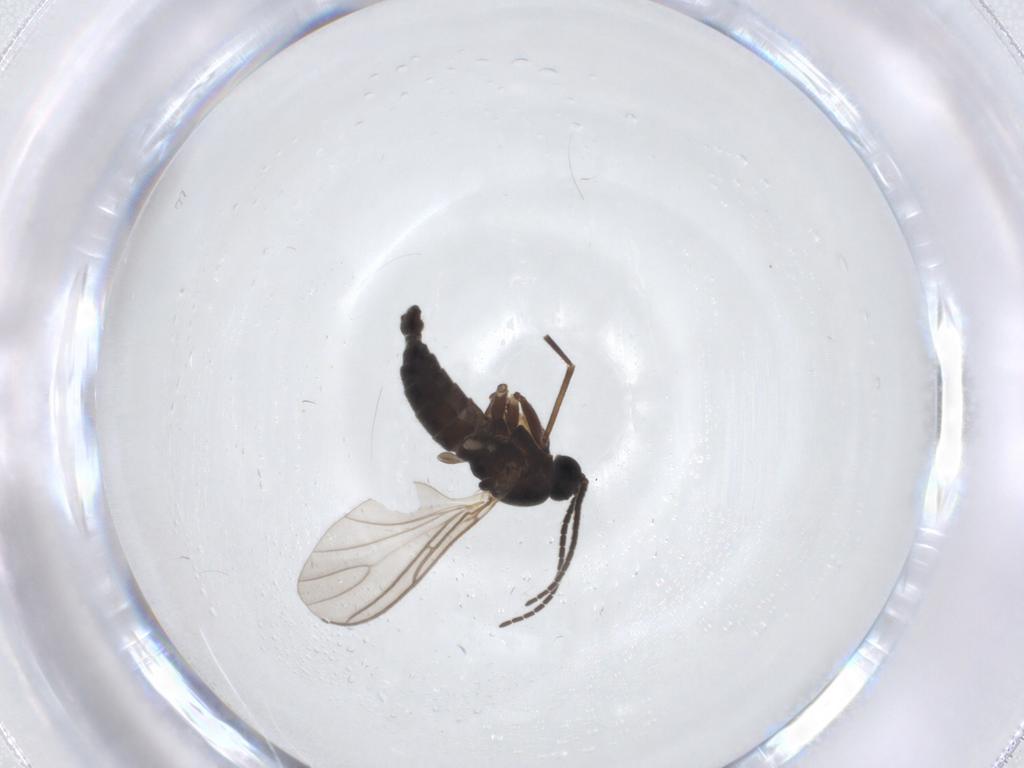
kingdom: Animalia
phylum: Arthropoda
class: Insecta
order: Diptera
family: Sciaridae
